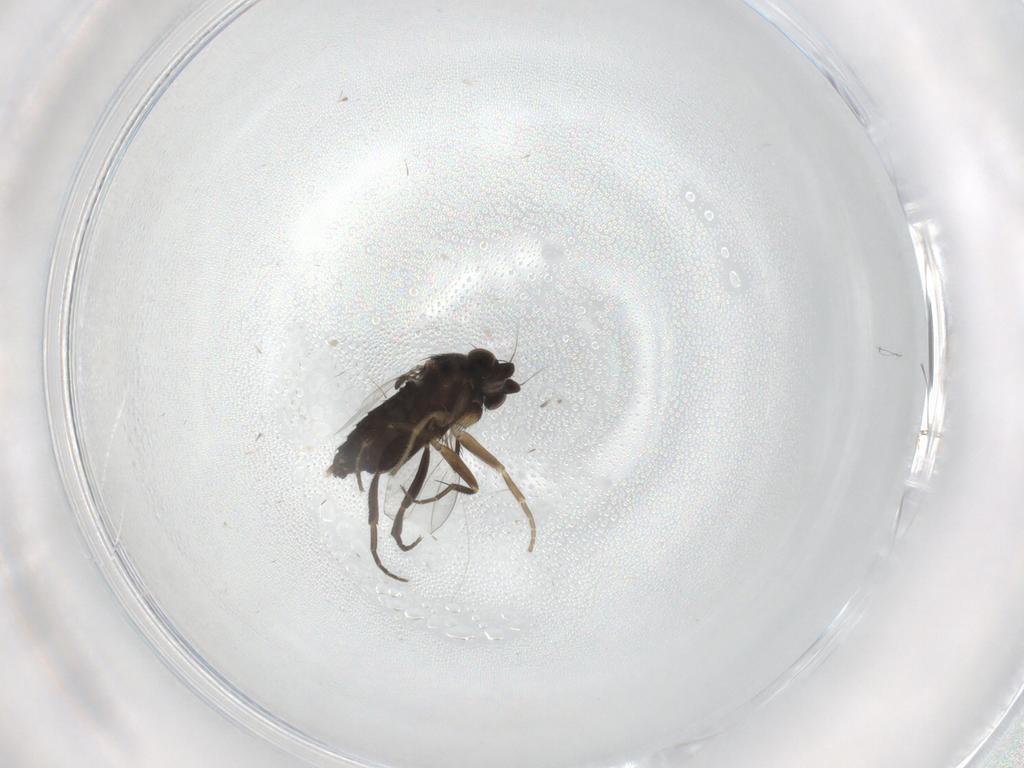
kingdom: Animalia
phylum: Arthropoda
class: Insecta
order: Diptera
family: Phoridae
